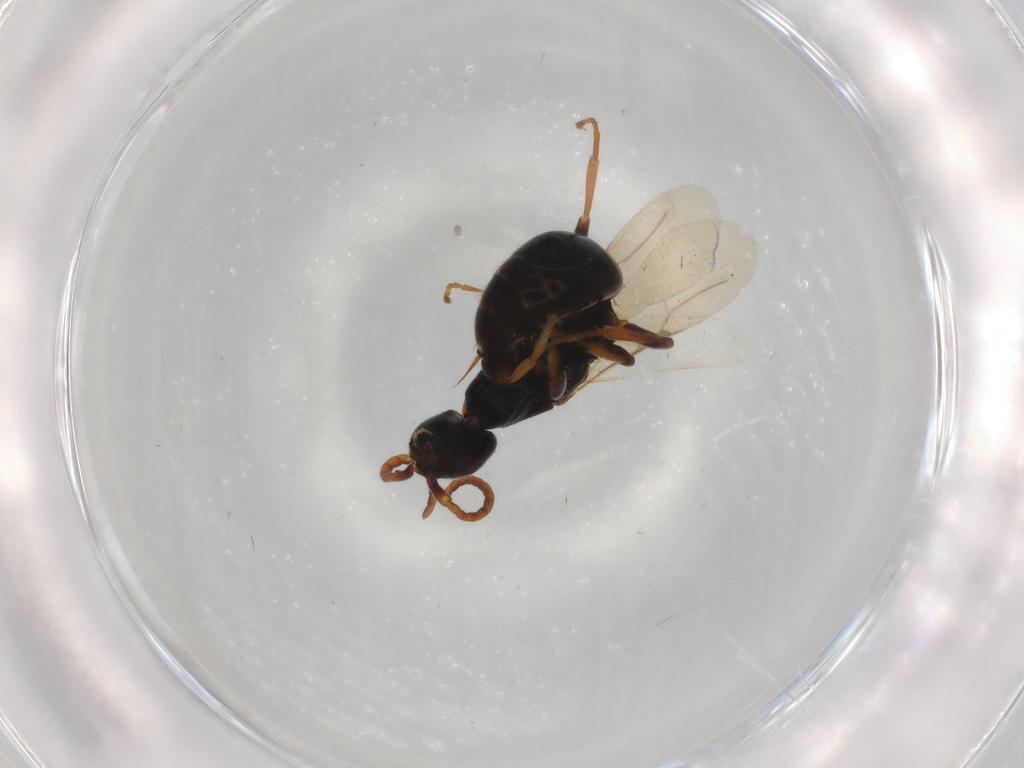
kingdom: Animalia
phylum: Arthropoda
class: Insecta
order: Hymenoptera
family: Bethylidae
